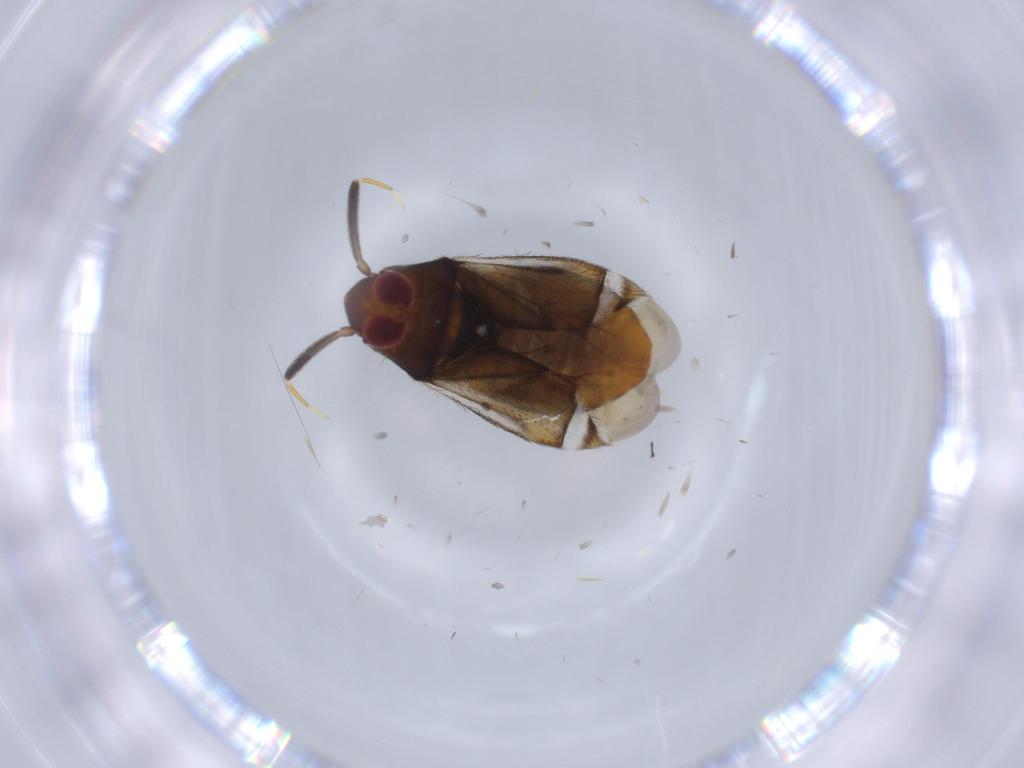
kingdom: Animalia
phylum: Arthropoda
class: Insecta
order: Hemiptera
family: Miridae
